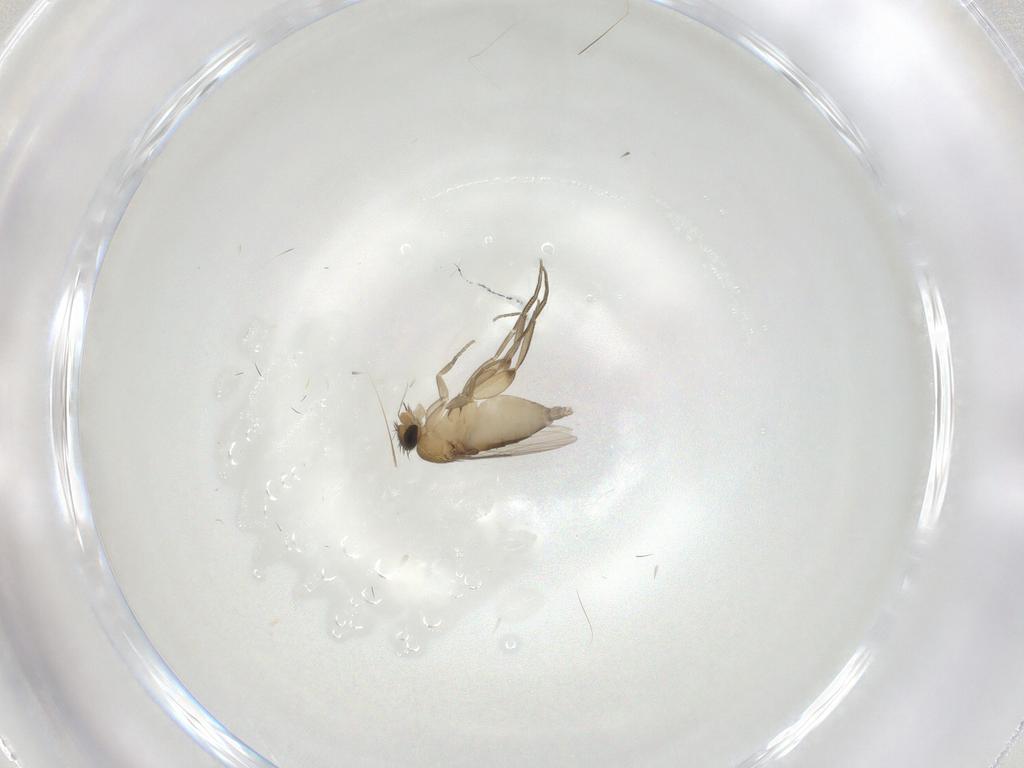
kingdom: Animalia
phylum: Arthropoda
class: Insecta
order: Diptera
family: Phoridae
